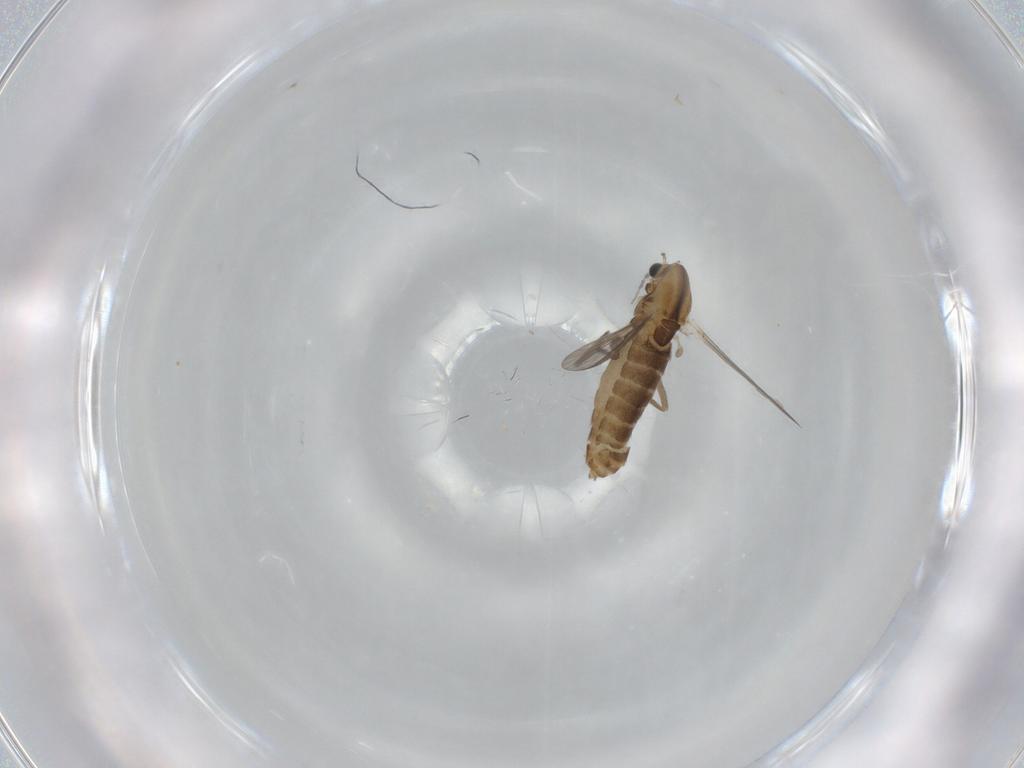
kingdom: Animalia
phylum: Arthropoda
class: Insecta
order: Diptera
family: Chironomidae
